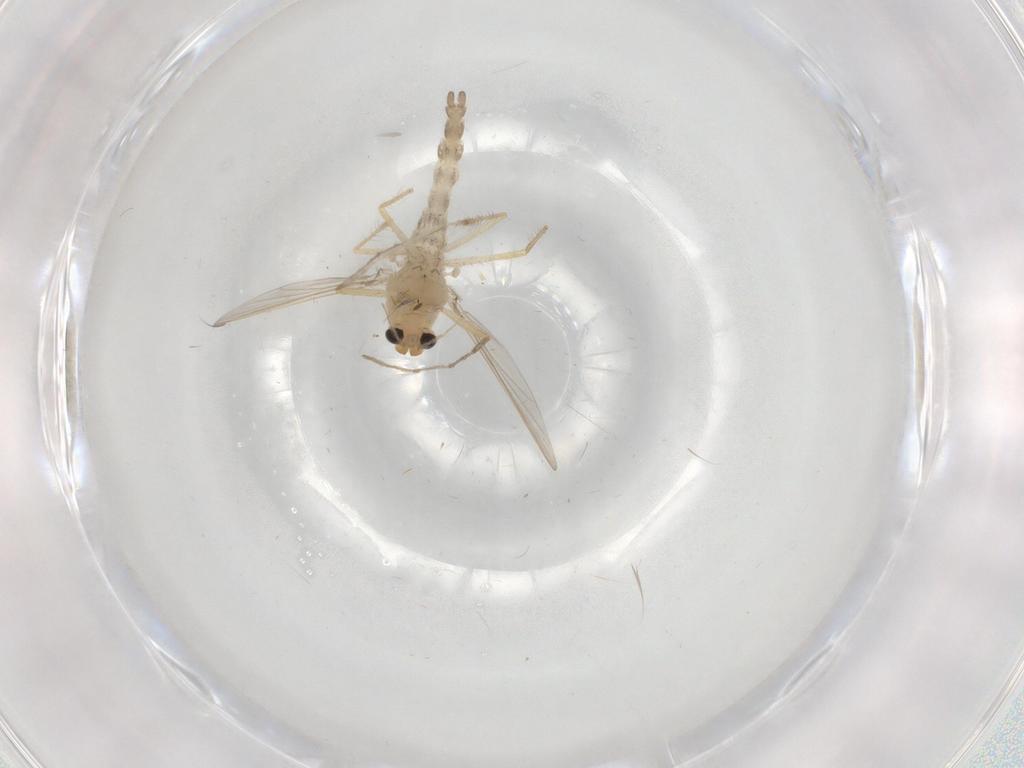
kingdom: Animalia
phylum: Arthropoda
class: Insecta
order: Diptera
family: Chironomidae
